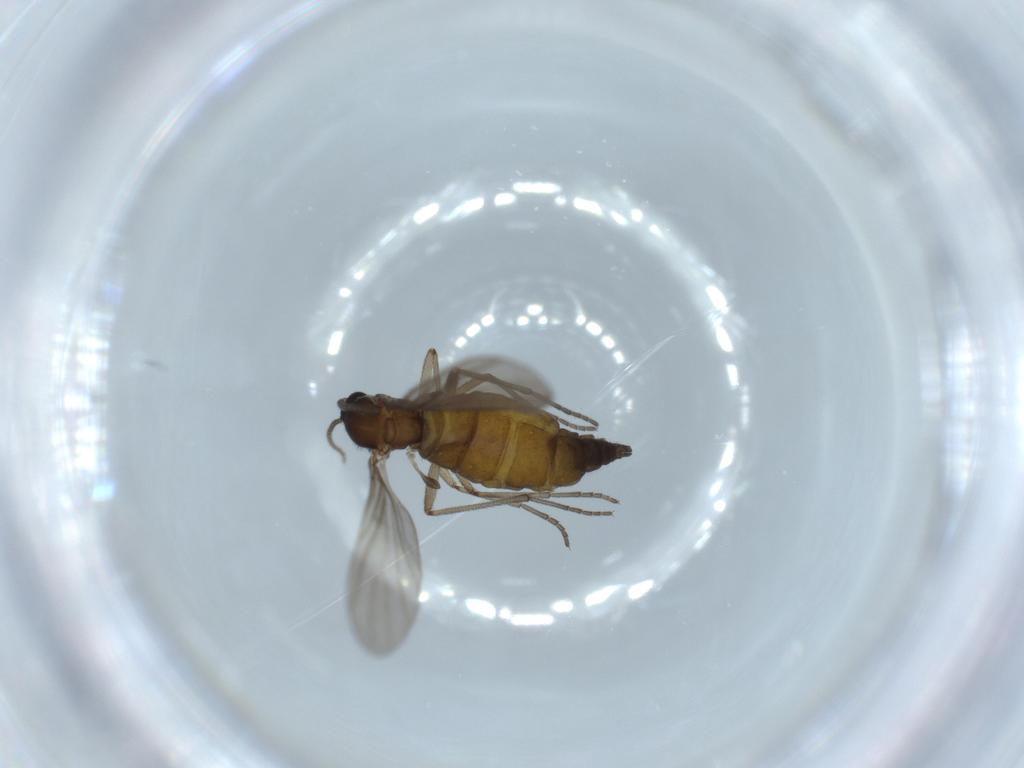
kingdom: Animalia
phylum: Arthropoda
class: Insecta
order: Diptera
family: Sciaridae
